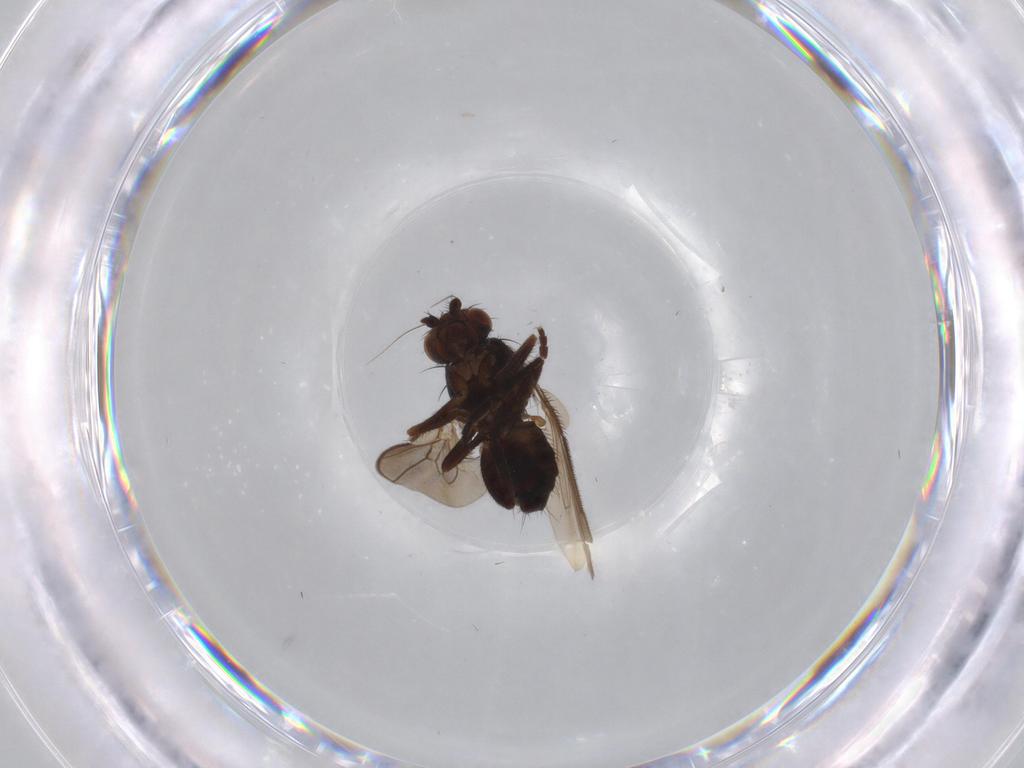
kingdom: Animalia
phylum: Arthropoda
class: Insecta
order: Diptera
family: Sphaeroceridae
